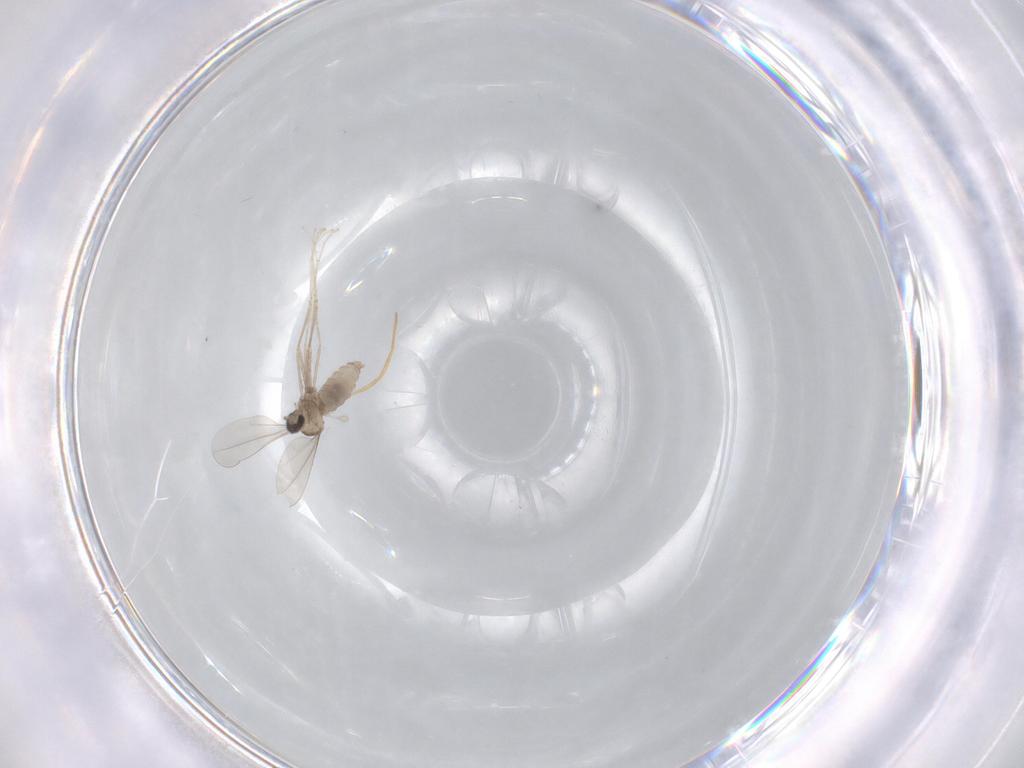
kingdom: Animalia
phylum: Arthropoda
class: Insecta
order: Diptera
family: Cecidomyiidae
